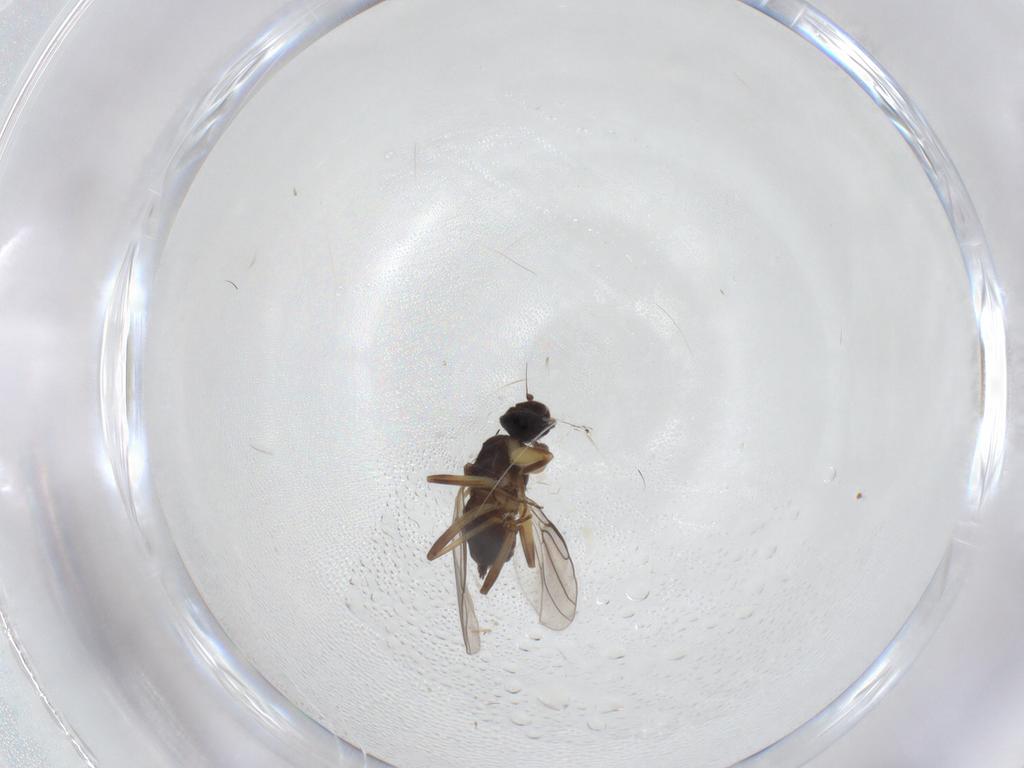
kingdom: Animalia
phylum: Arthropoda
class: Insecta
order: Diptera
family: Hybotidae
